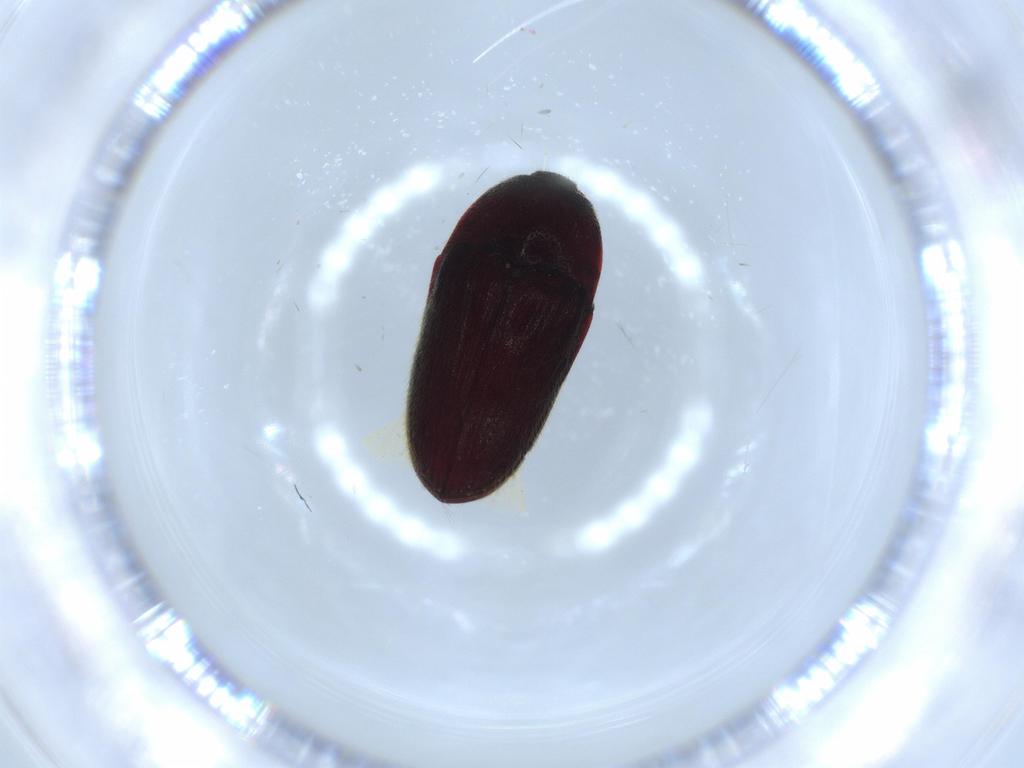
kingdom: Animalia
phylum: Arthropoda
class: Insecta
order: Coleoptera
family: Throscidae
